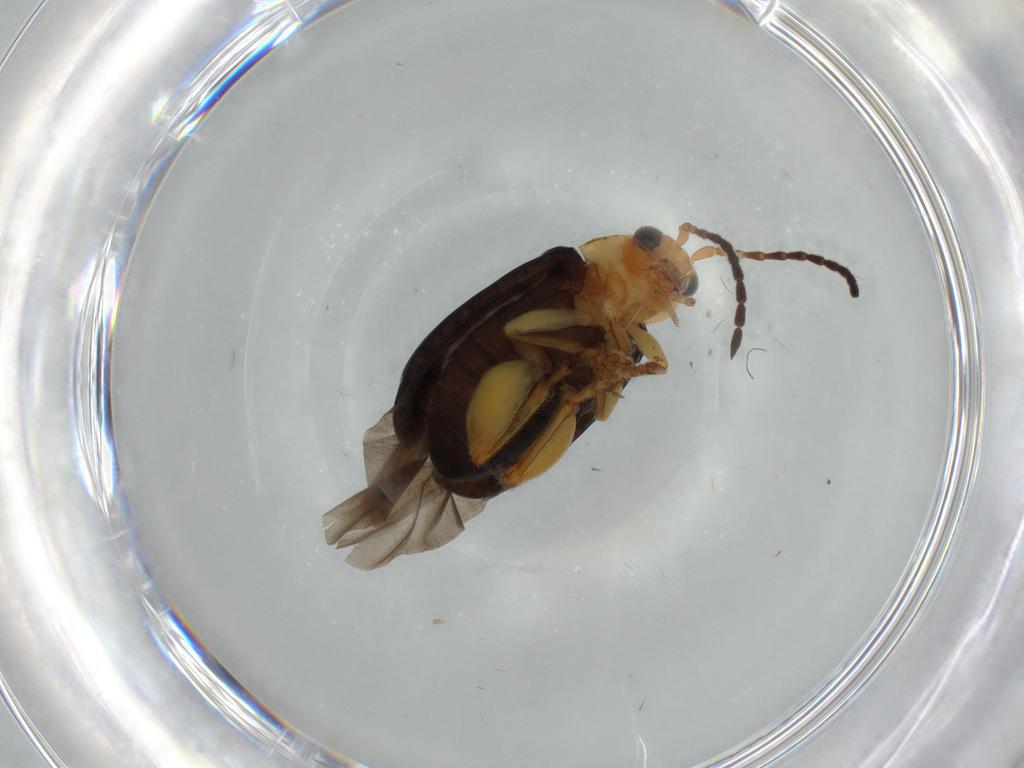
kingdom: Animalia
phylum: Arthropoda
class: Insecta
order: Coleoptera
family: Chrysomelidae
